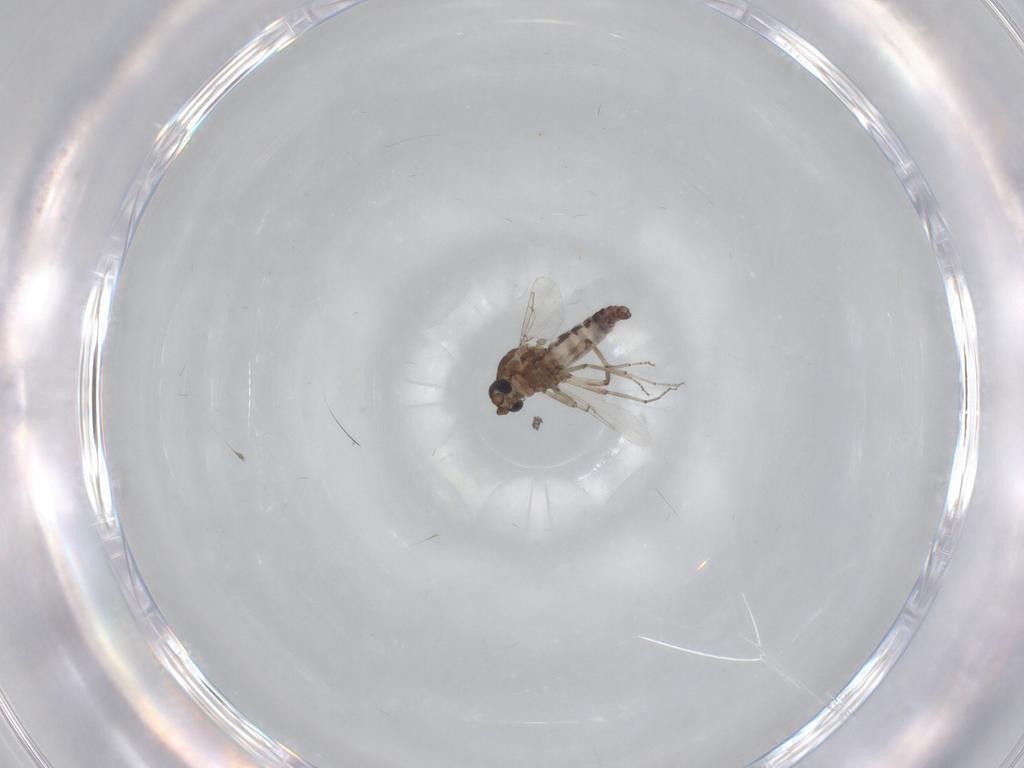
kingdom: Animalia
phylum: Arthropoda
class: Insecta
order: Diptera
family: Ceratopogonidae
